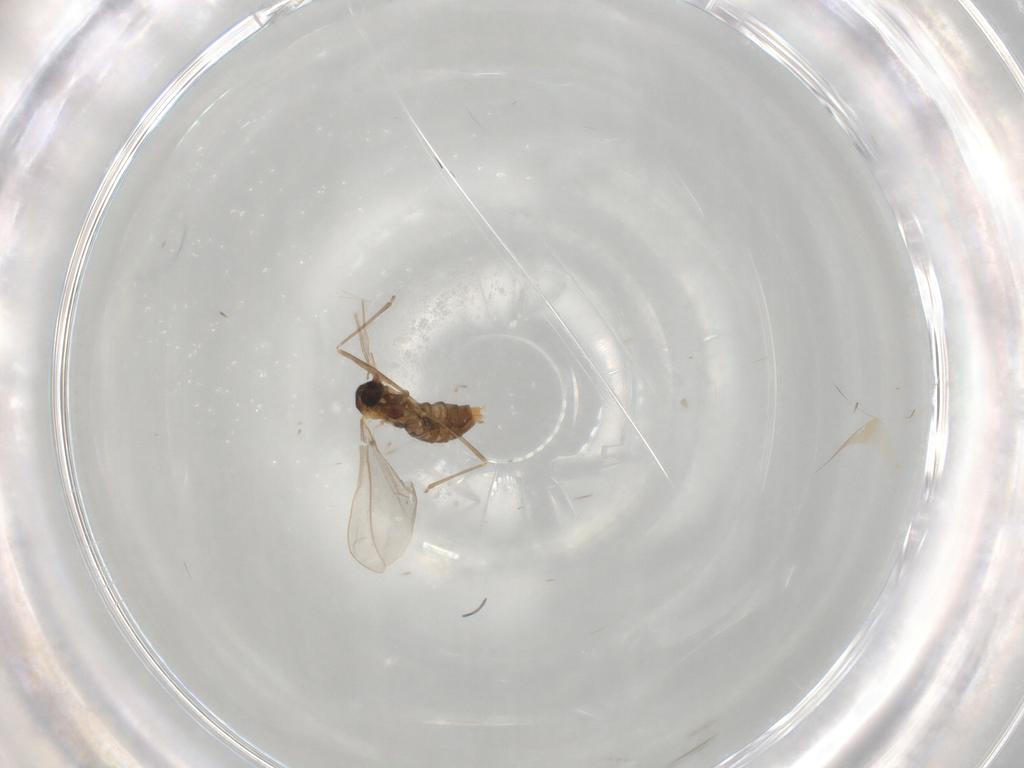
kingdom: Animalia
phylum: Arthropoda
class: Insecta
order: Diptera
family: Cecidomyiidae
